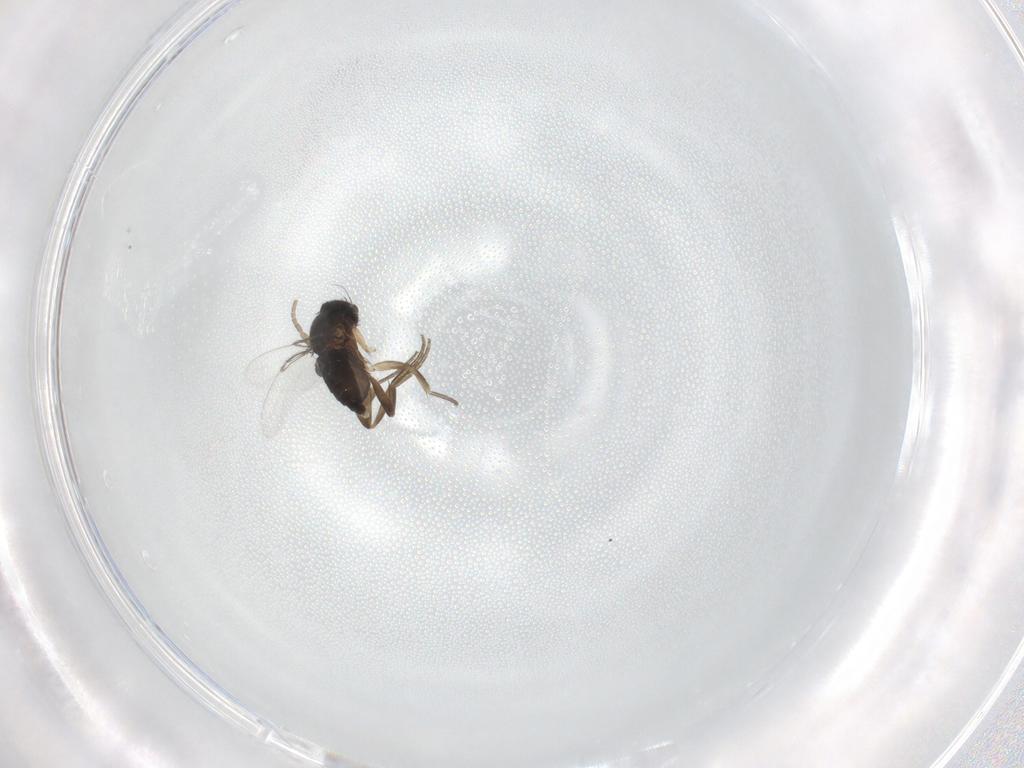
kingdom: Animalia
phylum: Arthropoda
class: Insecta
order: Diptera
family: Phoridae
